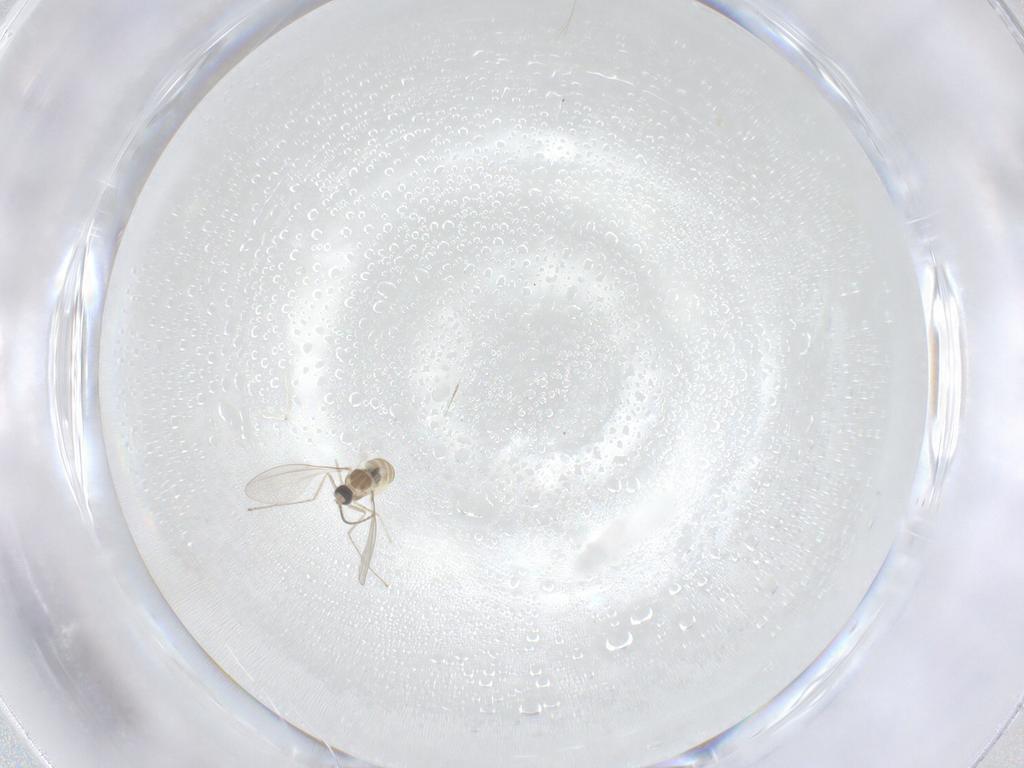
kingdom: Animalia
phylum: Arthropoda
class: Insecta
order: Diptera
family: Cecidomyiidae
